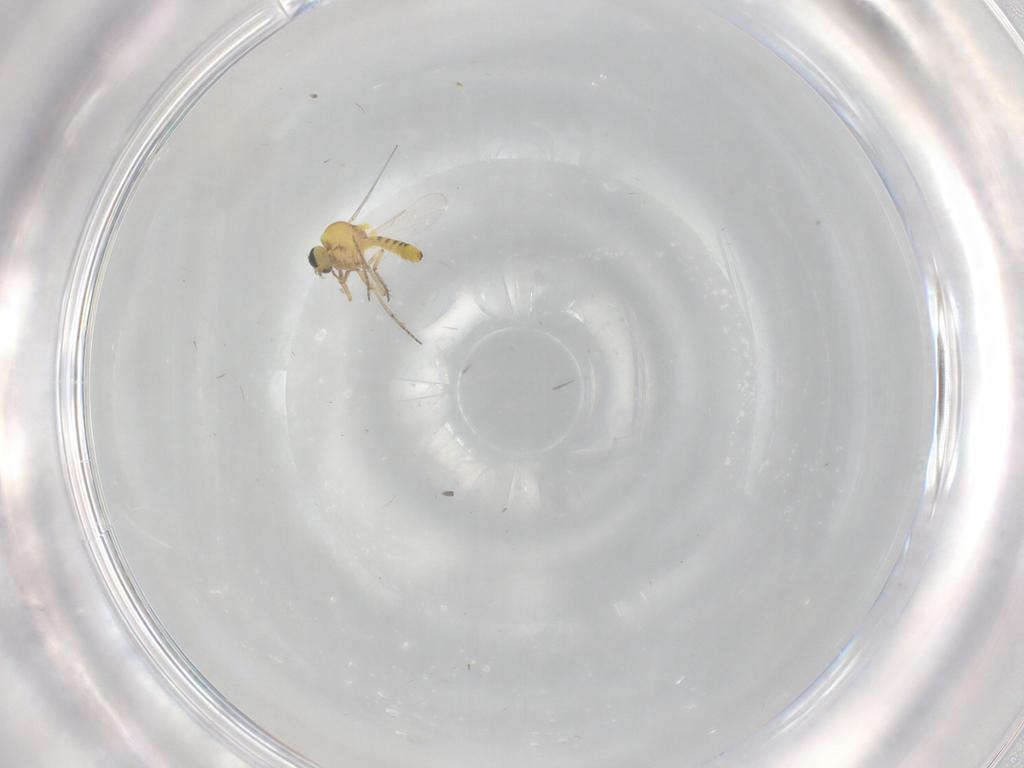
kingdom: Animalia
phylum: Arthropoda
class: Insecta
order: Diptera
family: Ceratopogonidae
